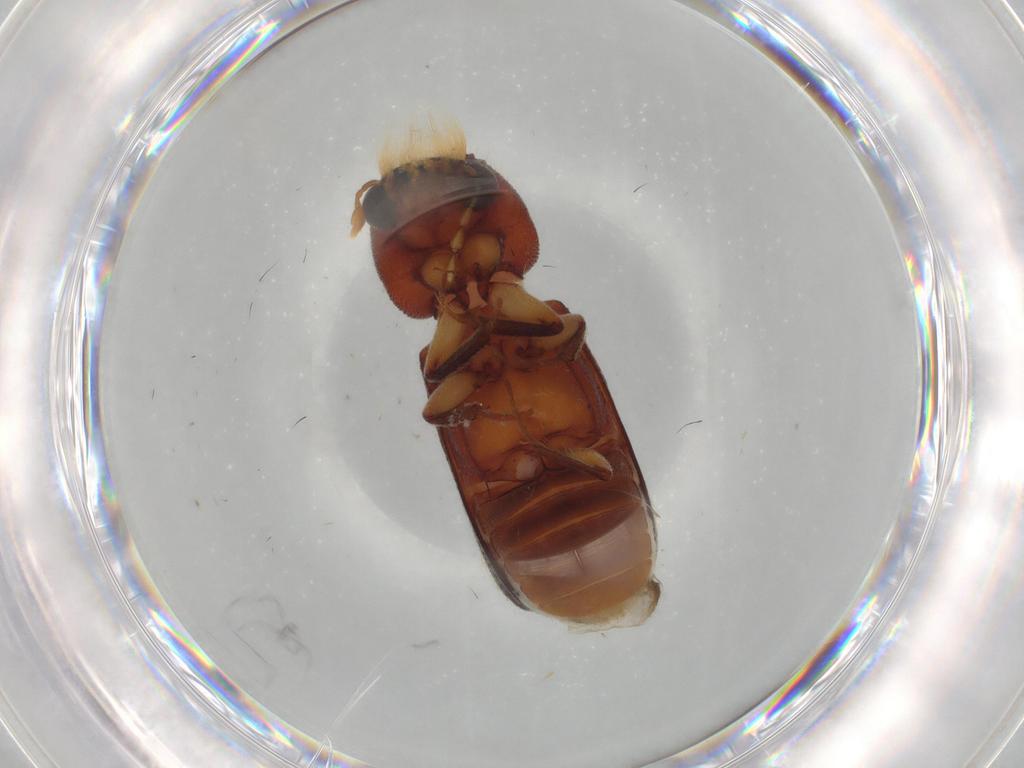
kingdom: Animalia
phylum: Arthropoda
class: Insecta
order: Coleoptera
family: Bostrichidae
